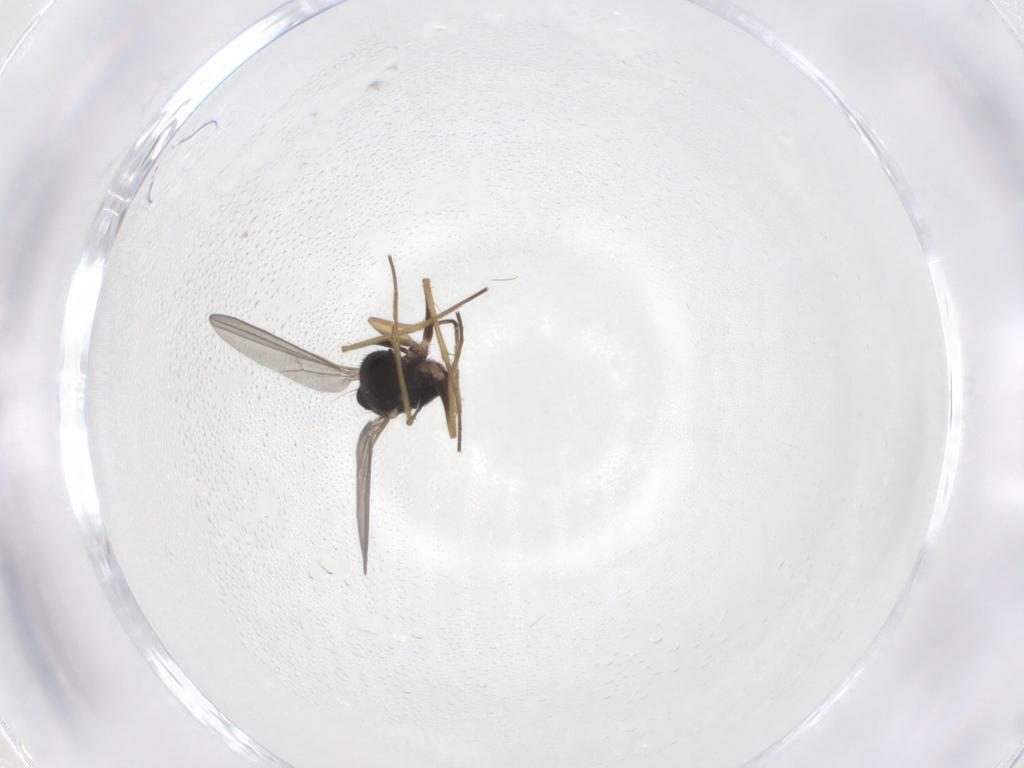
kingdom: Animalia
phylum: Arthropoda
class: Insecta
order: Diptera
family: Dolichopodidae
